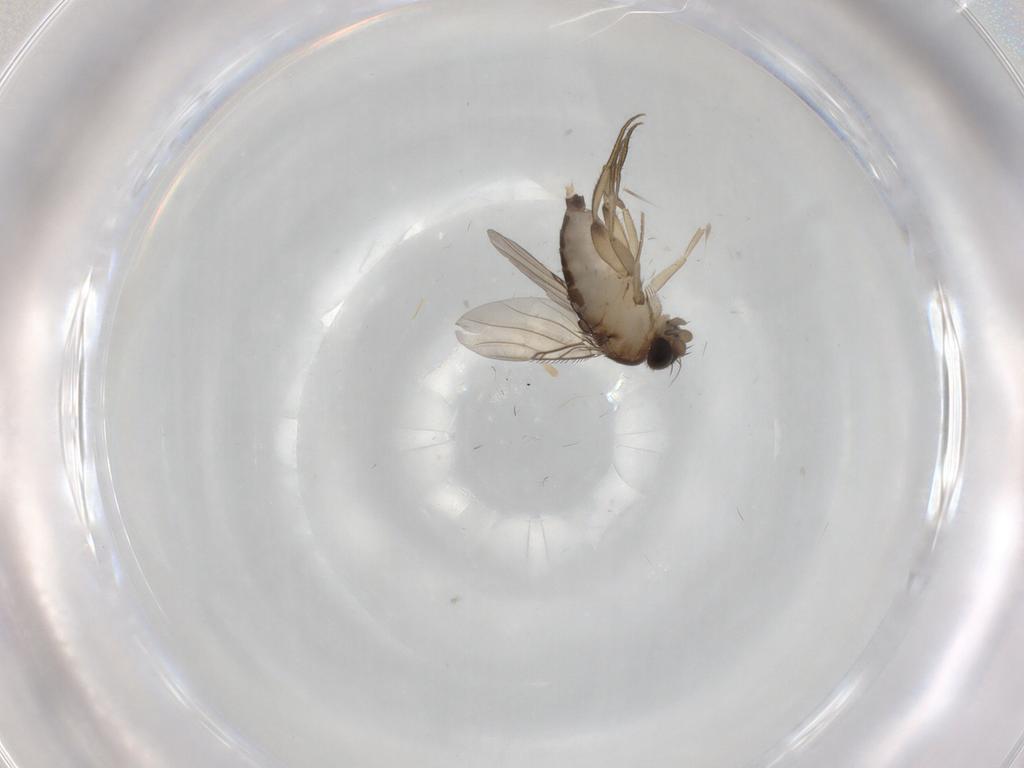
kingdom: Animalia
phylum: Arthropoda
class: Insecta
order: Diptera
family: Phoridae
